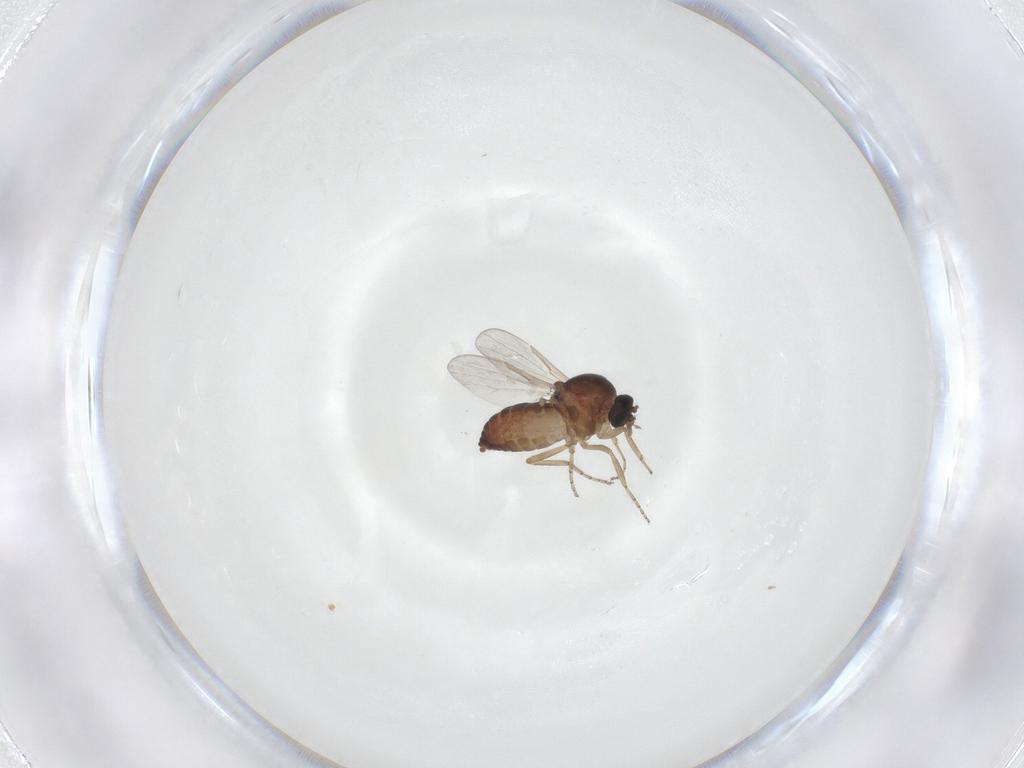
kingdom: Animalia
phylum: Arthropoda
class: Insecta
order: Diptera
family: Ceratopogonidae
